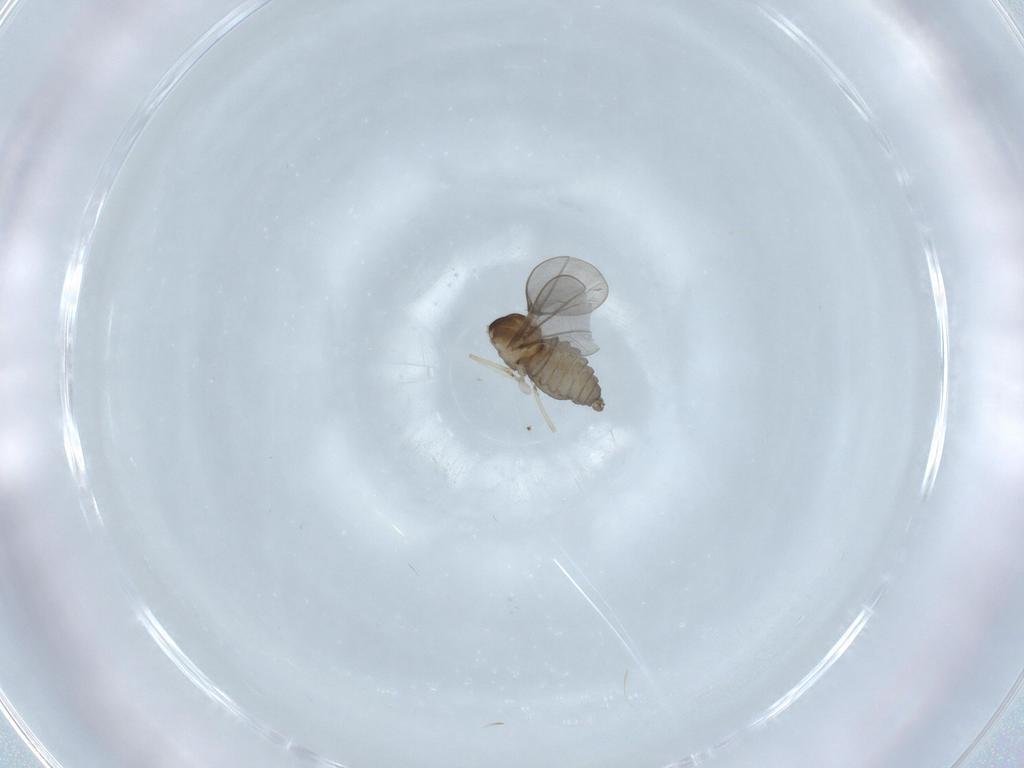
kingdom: Animalia
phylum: Arthropoda
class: Insecta
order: Diptera
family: Cecidomyiidae
